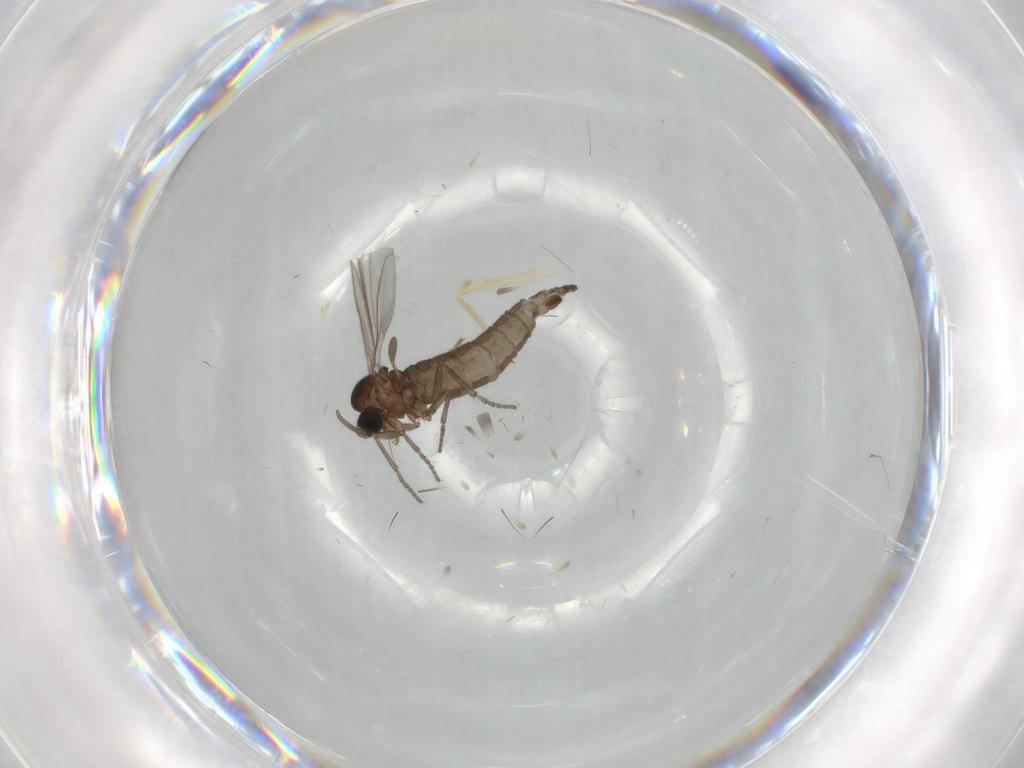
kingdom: Animalia
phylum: Arthropoda
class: Insecta
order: Diptera
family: Sciaridae
